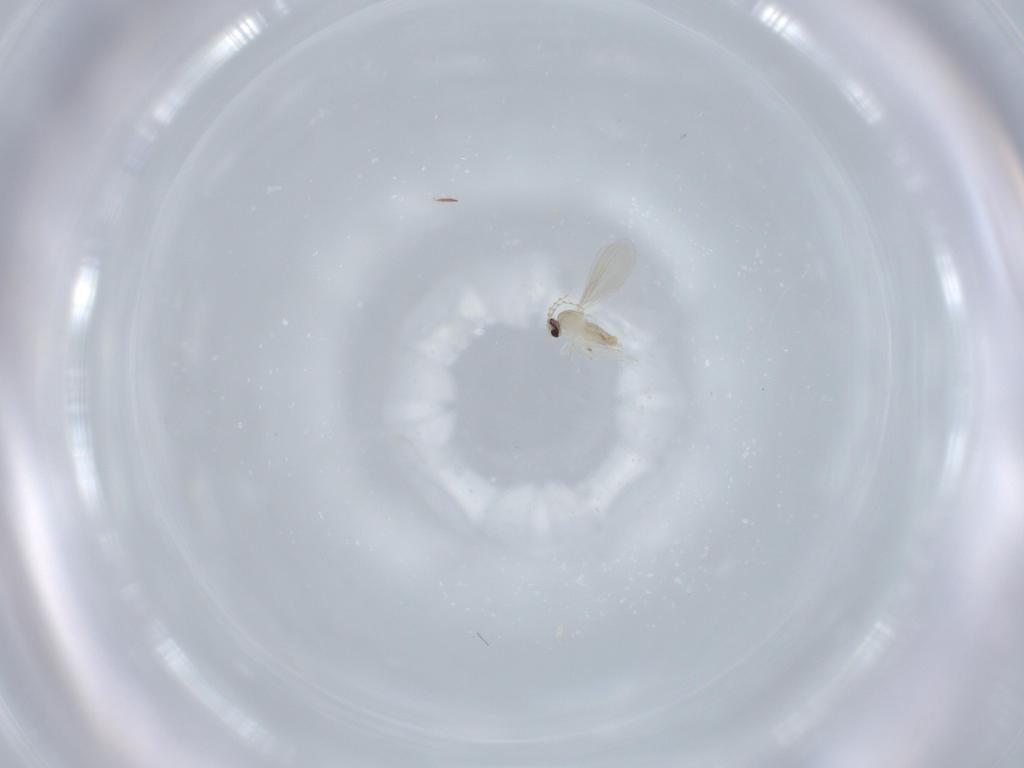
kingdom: Animalia
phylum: Arthropoda
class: Insecta
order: Diptera
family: Cecidomyiidae
